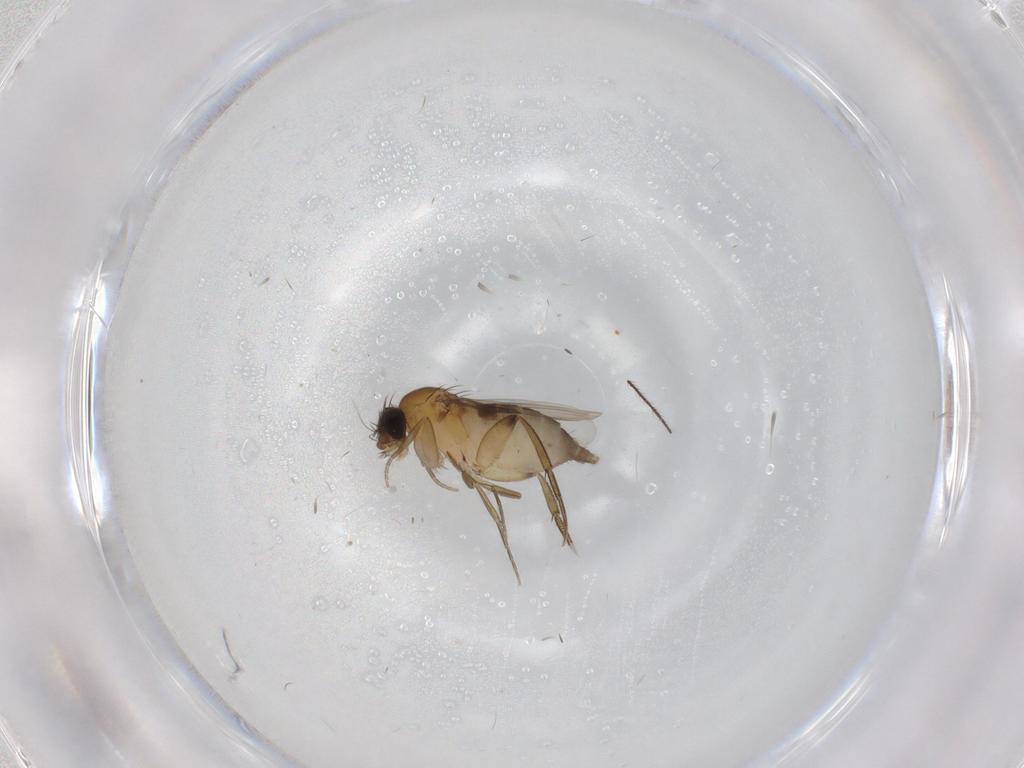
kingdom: Animalia
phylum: Arthropoda
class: Insecta
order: Diptera
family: Phoridae
